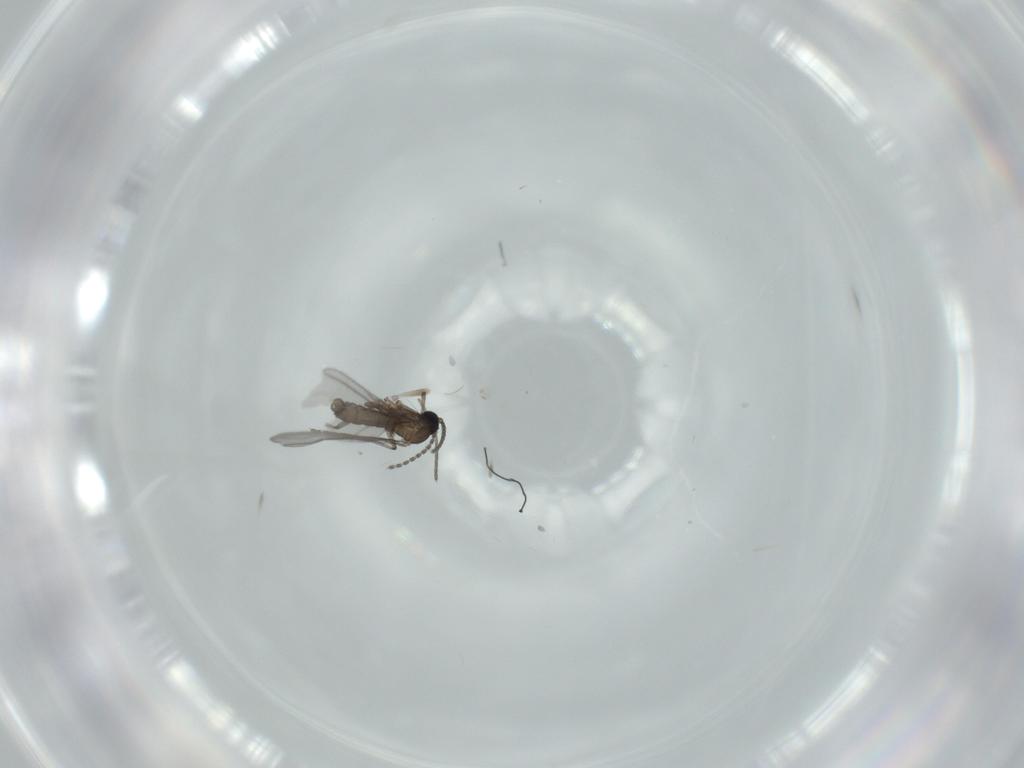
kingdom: Animalia
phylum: Arthropoda
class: Insecta
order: Diptera
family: Sciaridae
